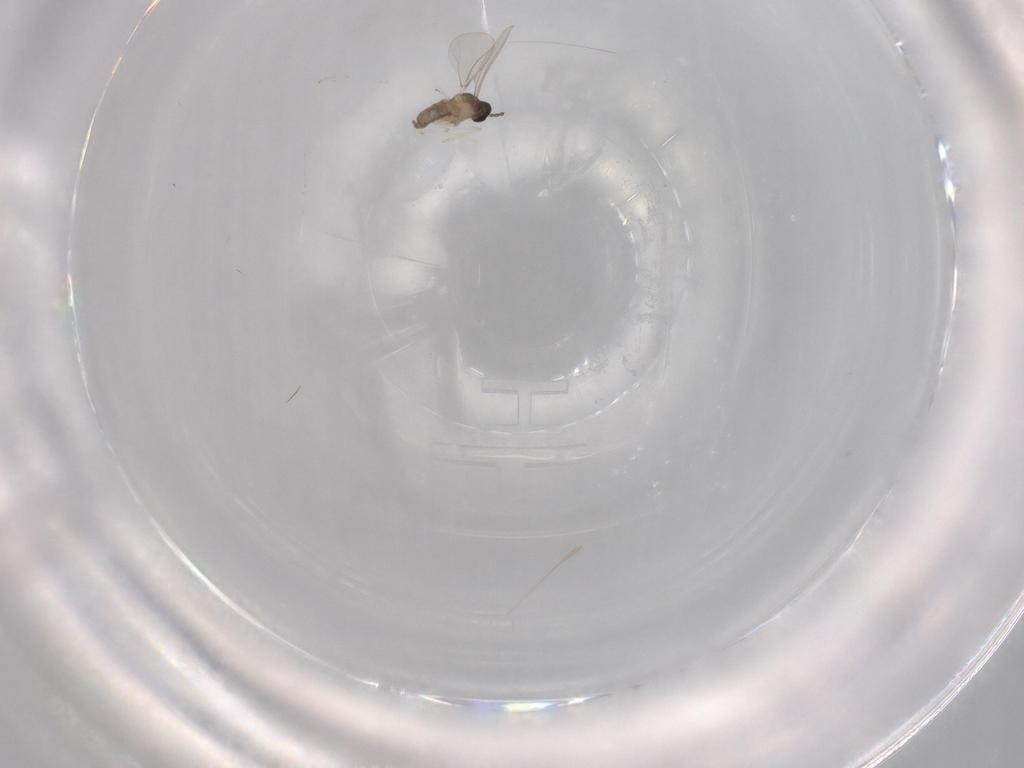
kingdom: Animalia
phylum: Arthropoda
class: Insecta
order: Diptera
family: Cecidomyiidae
